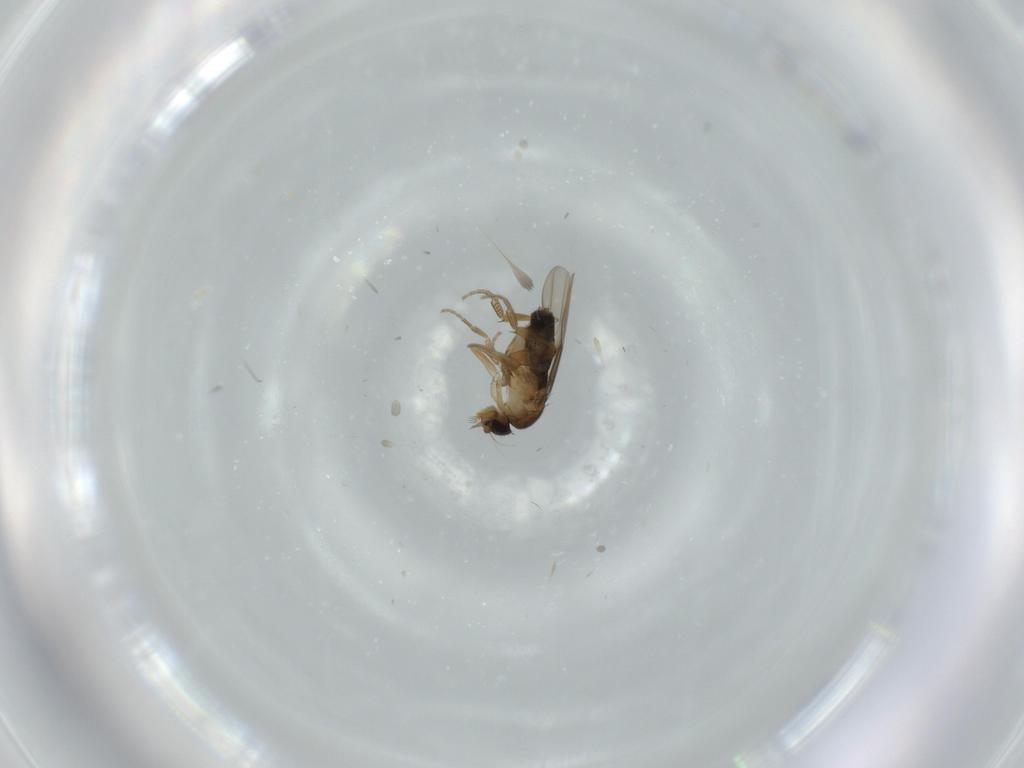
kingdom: Animalia
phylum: Arthropoda
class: Insecta
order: Diptera
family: Phoridae
